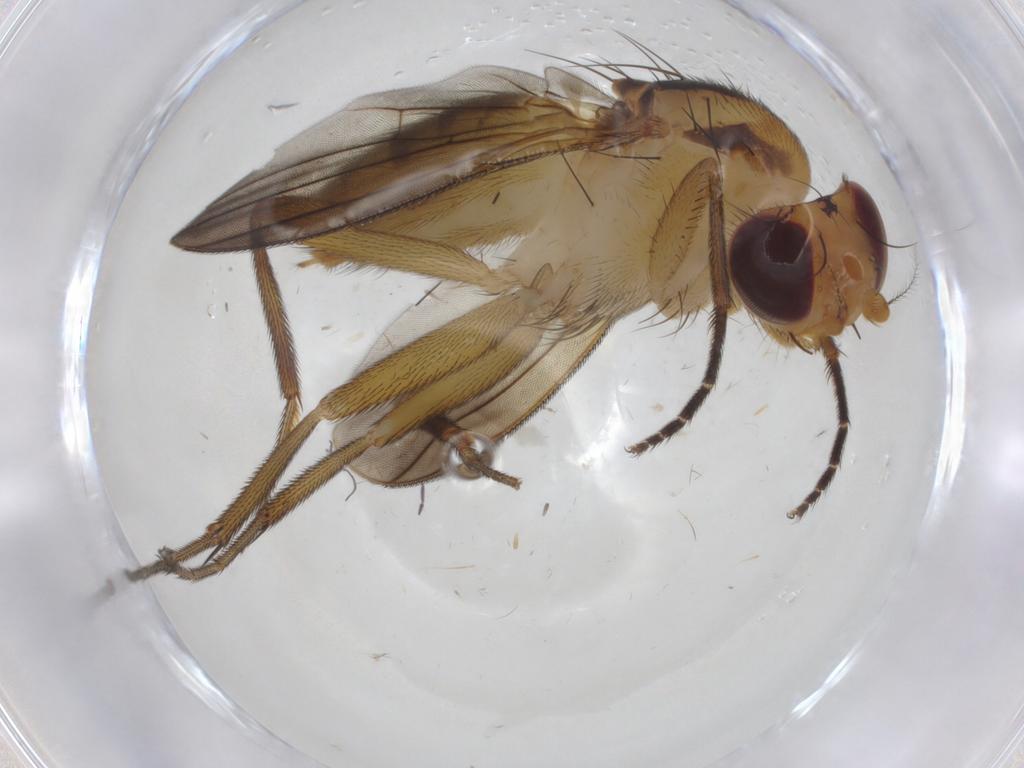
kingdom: Animalia
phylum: Arthropoda
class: Insecta
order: Diptera
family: Clusiidae
